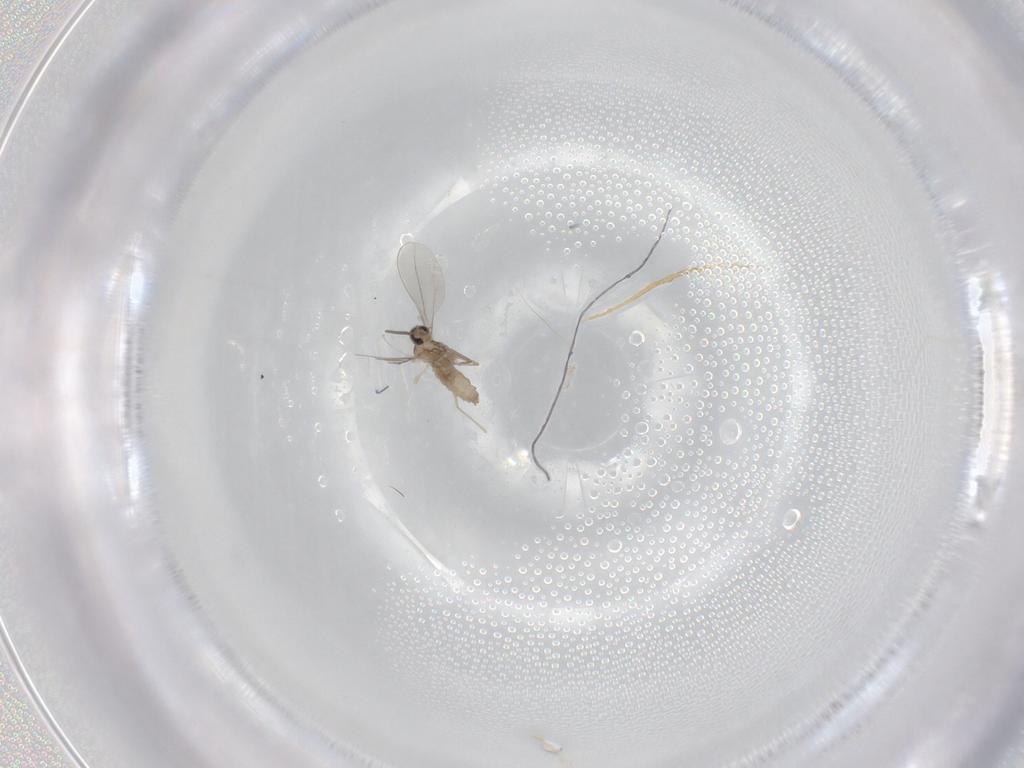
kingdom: Animalia
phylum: Arthropoda
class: Insecta
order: Diptera
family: Cecidomyiidae
